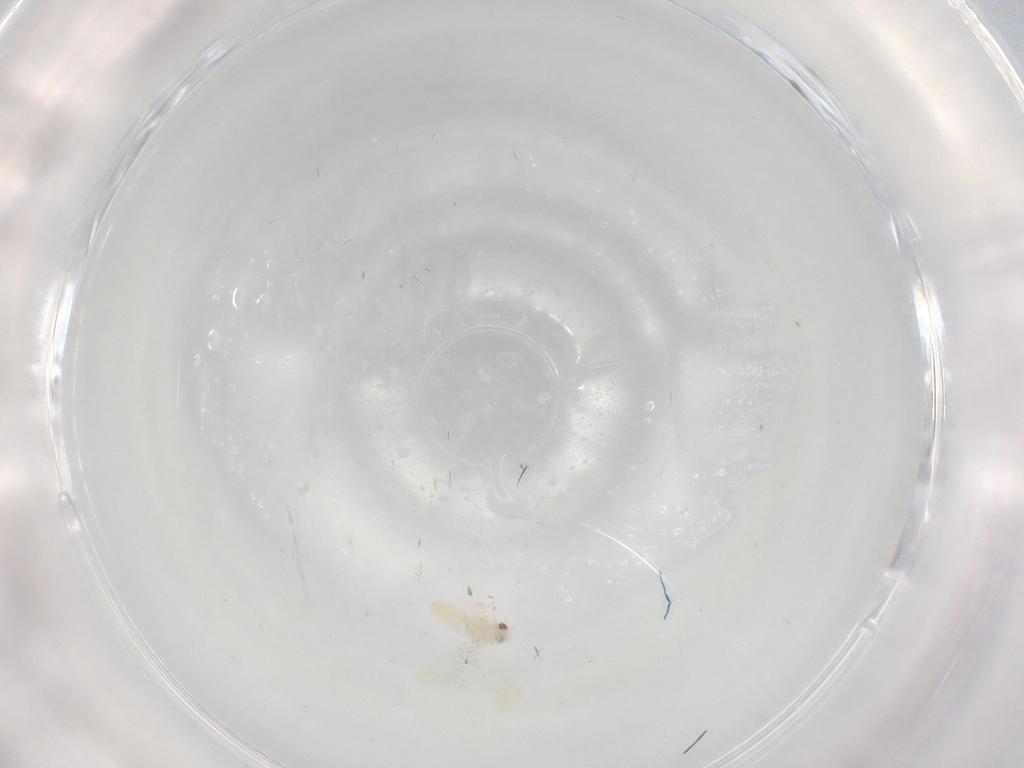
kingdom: Animalia
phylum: Arthropoda
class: Insecta
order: Hemiptera
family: Aleyrodidae
